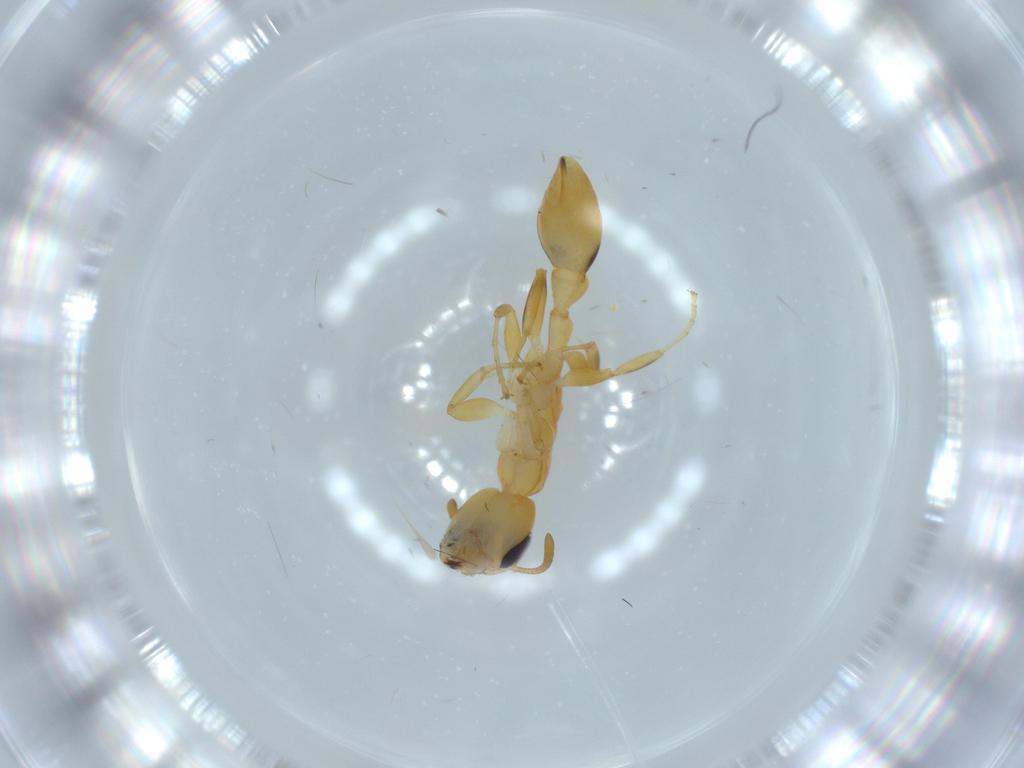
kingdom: Animalia
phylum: Arthropoda
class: Insecta
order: Hymenoptera
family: Formicidae
